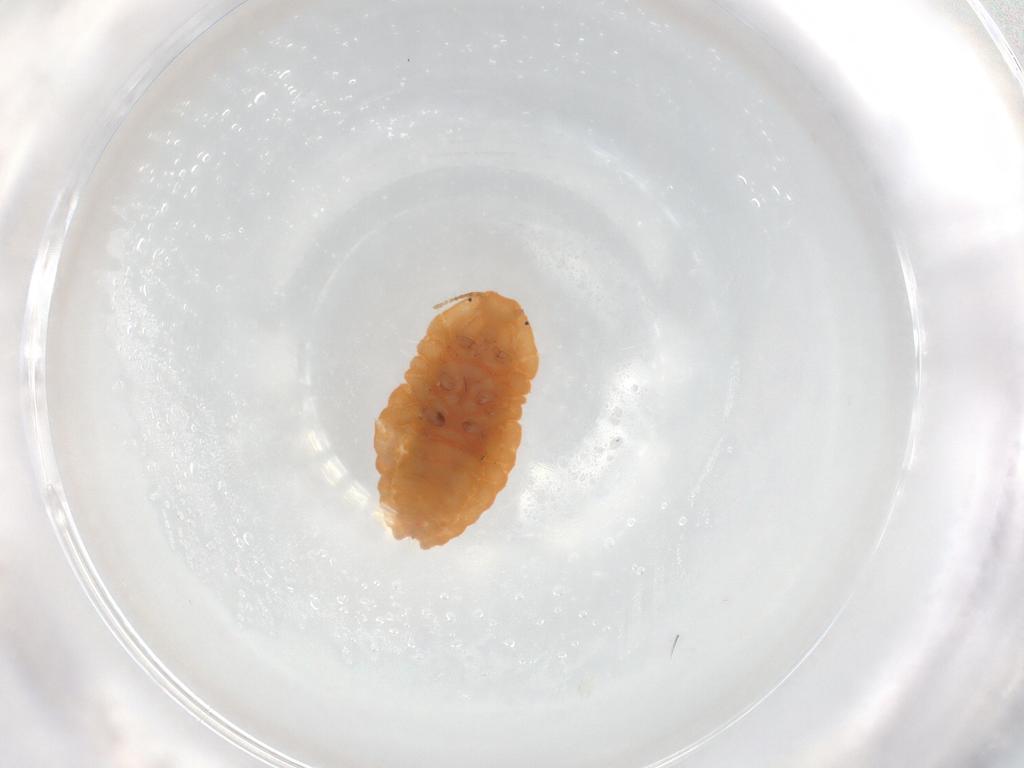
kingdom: Animalia
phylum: Arthropoda
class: Insecta
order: Hemiptera
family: Pseudococcidae
